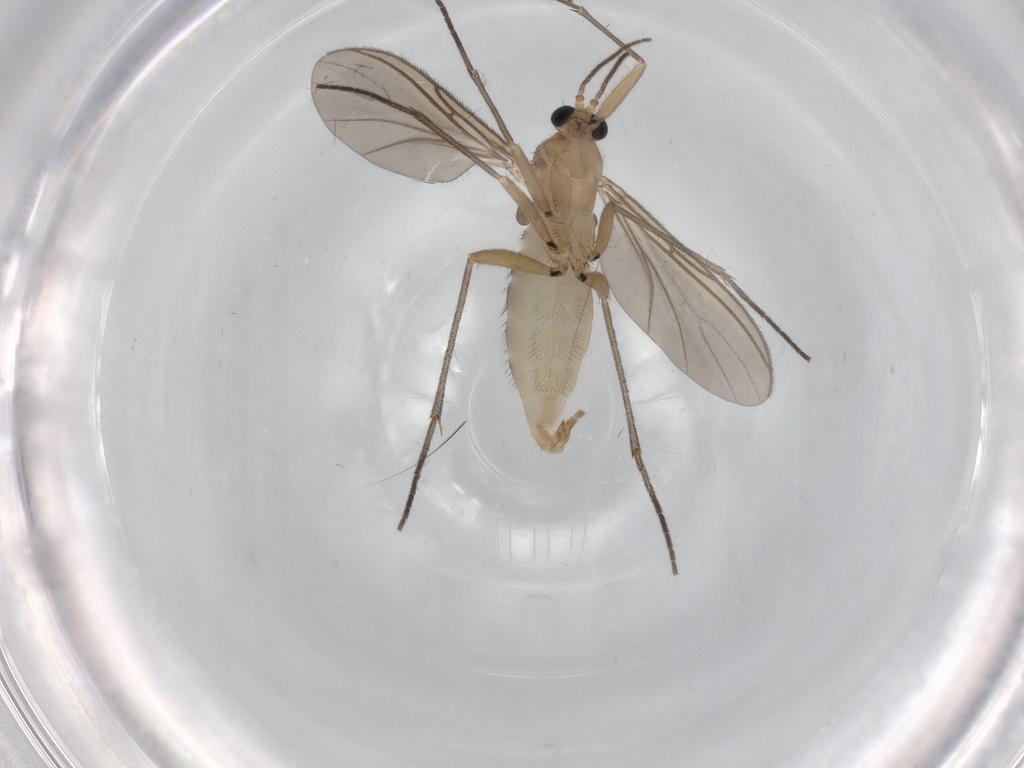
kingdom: Animalia
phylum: Arthropoda
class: Insecta
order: Diptera
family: Sciaridae
